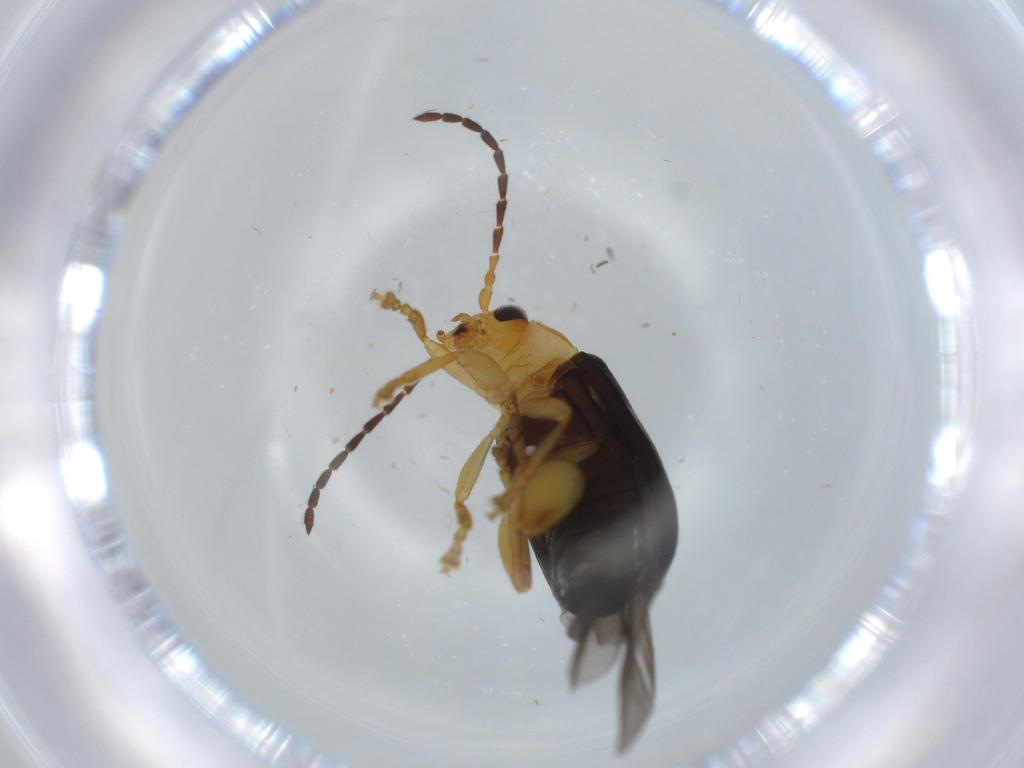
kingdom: Animalia
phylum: Arthropoda
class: Insecta
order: Coleoptera
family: Chrysomelidae
